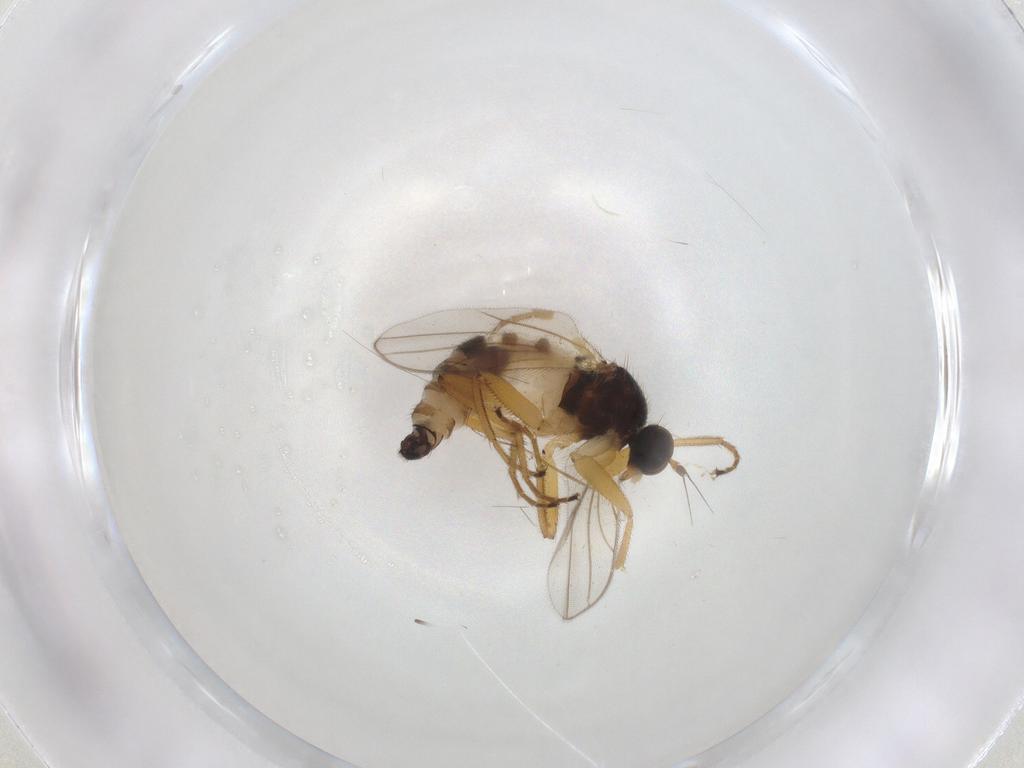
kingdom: Animalia
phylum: Arthropoda
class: Insecta
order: Diptera
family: Hybotidae
